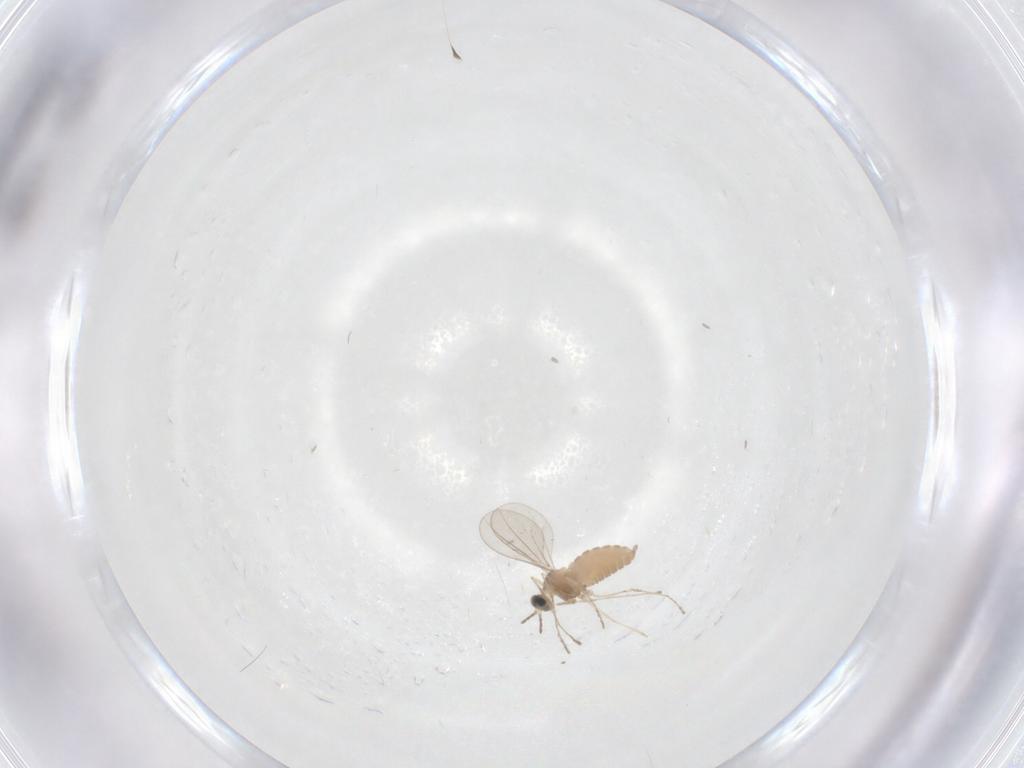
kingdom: Animalia
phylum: Arthropoda
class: Insecta
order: Diptera
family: Cecidomyiidae
